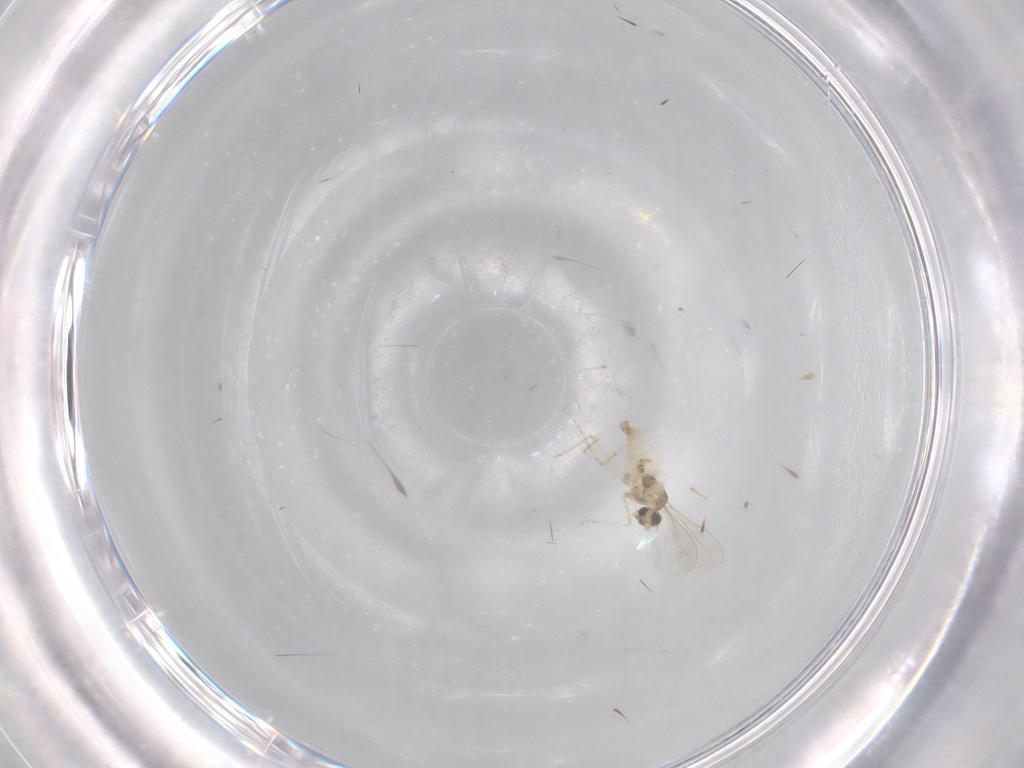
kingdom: Animalia
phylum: Arthropoda
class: Insecta
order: Diptera
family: Cecidomyiidae
